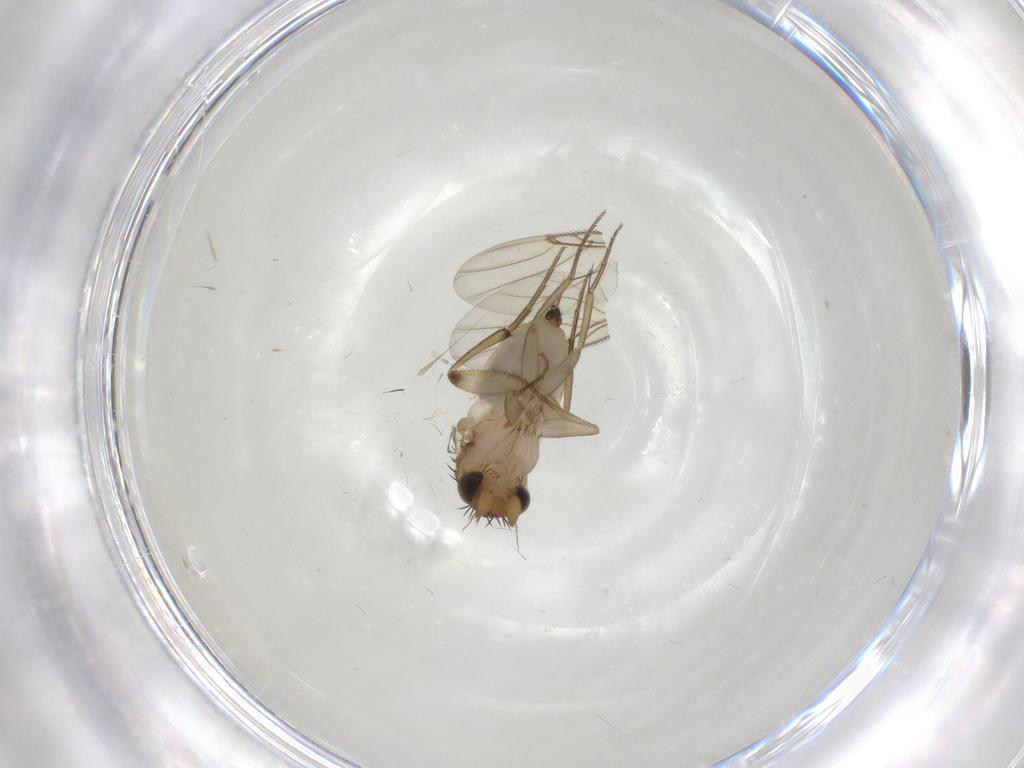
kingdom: Animalia
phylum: Arthropoda
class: Insecta
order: Diptera
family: Phoridae
